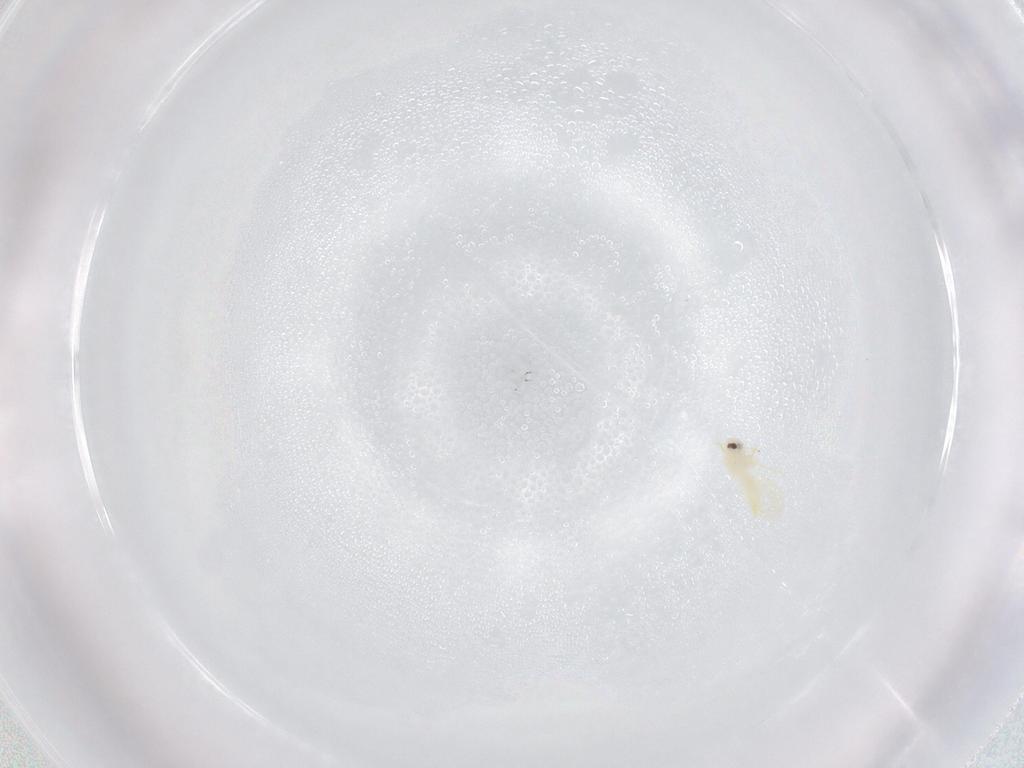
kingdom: Animalia
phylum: Arthropoda
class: Insecta
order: Hemiptera
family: Aleyrodidae
